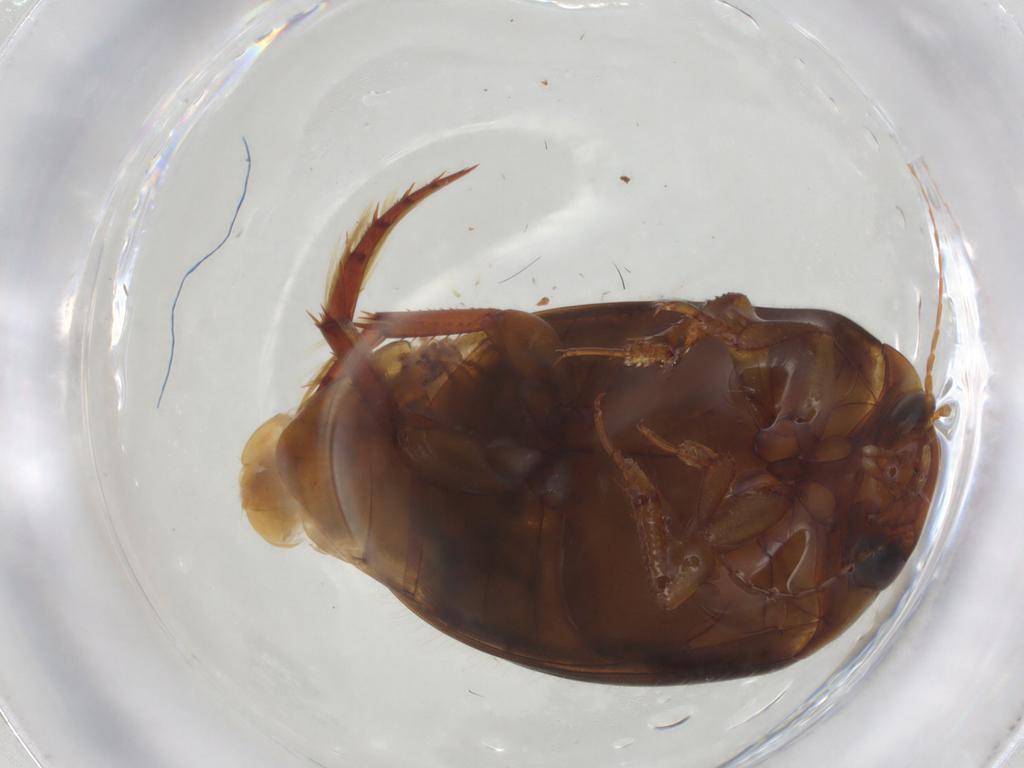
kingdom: Animalia
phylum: Arthropoda
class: Insecta
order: Coleoptera
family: Dytiscidae
